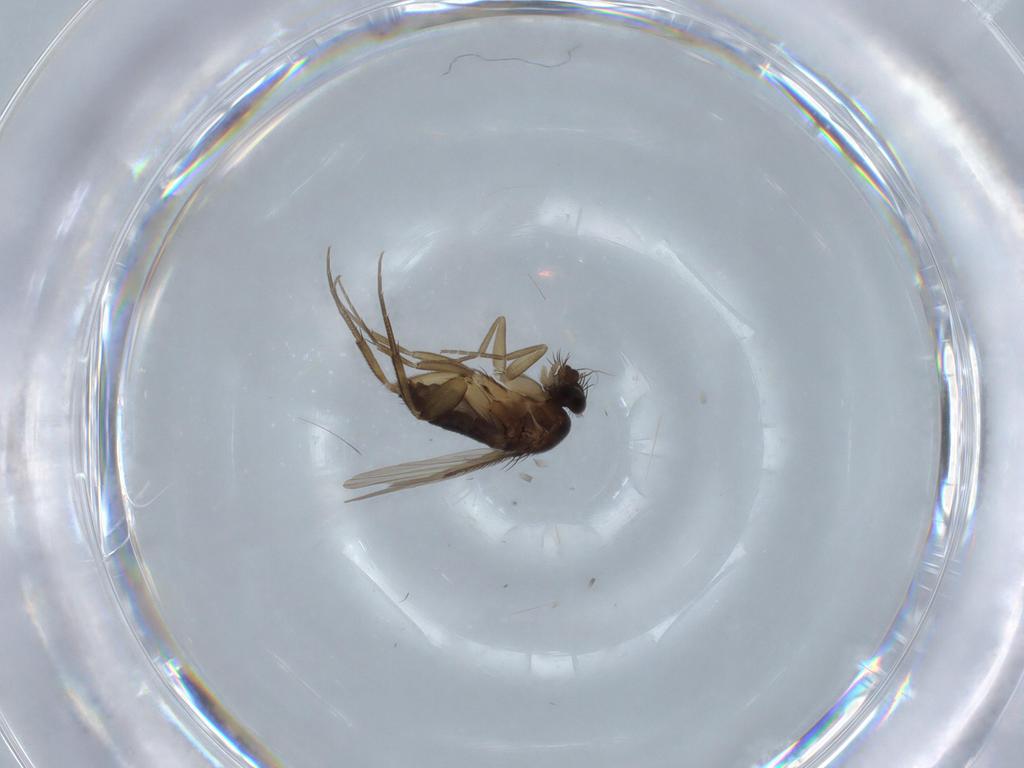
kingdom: Animalia
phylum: Arthropoda
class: Insecta
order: Diptera
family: Phoridae
